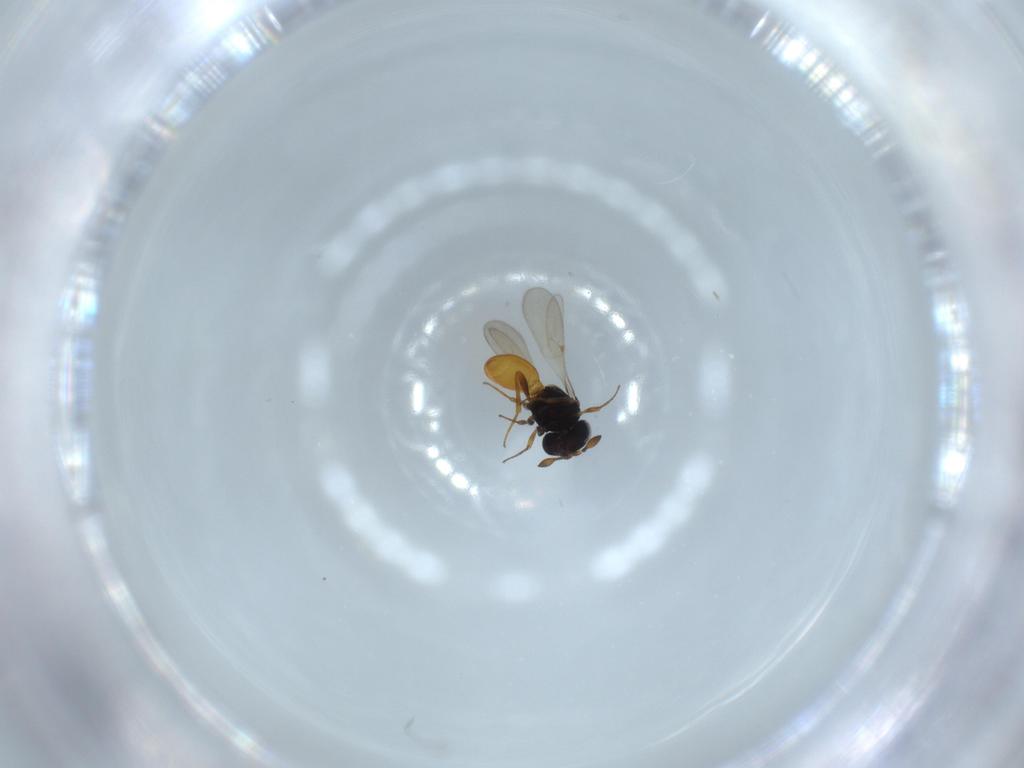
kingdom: Animalia
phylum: Arthropoda
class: Insecta
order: Hymenoptera
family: Scelionidae
